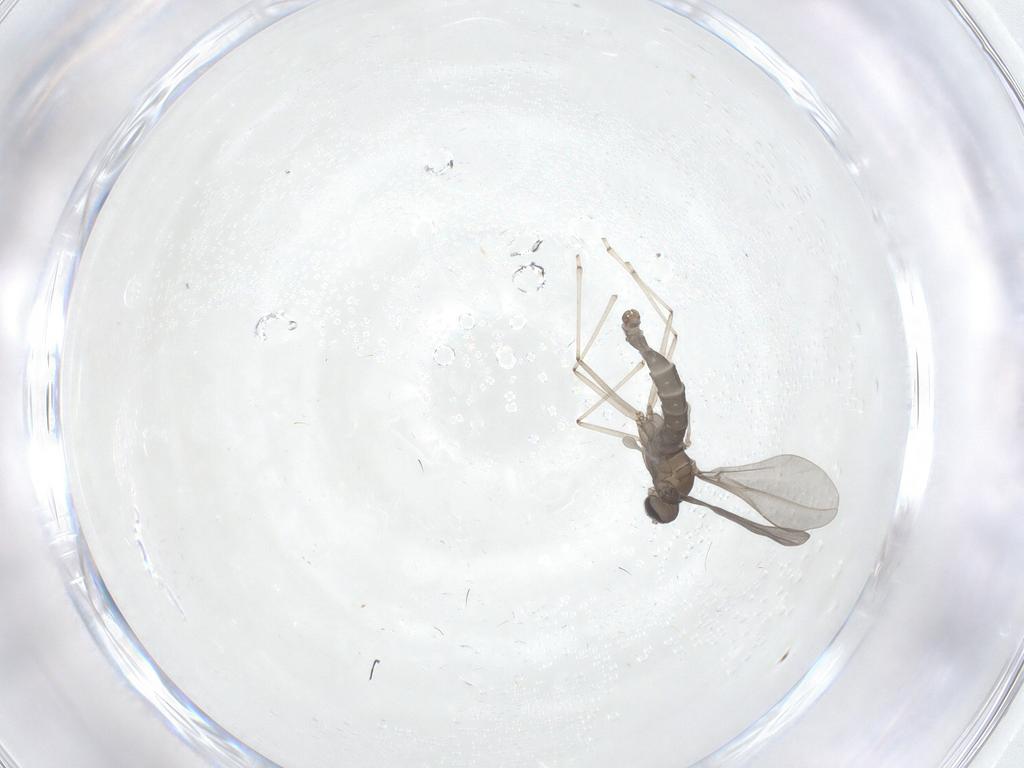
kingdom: Animalia
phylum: Arthropoda
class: Insecta
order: Diptera
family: Cecidomyiidae
